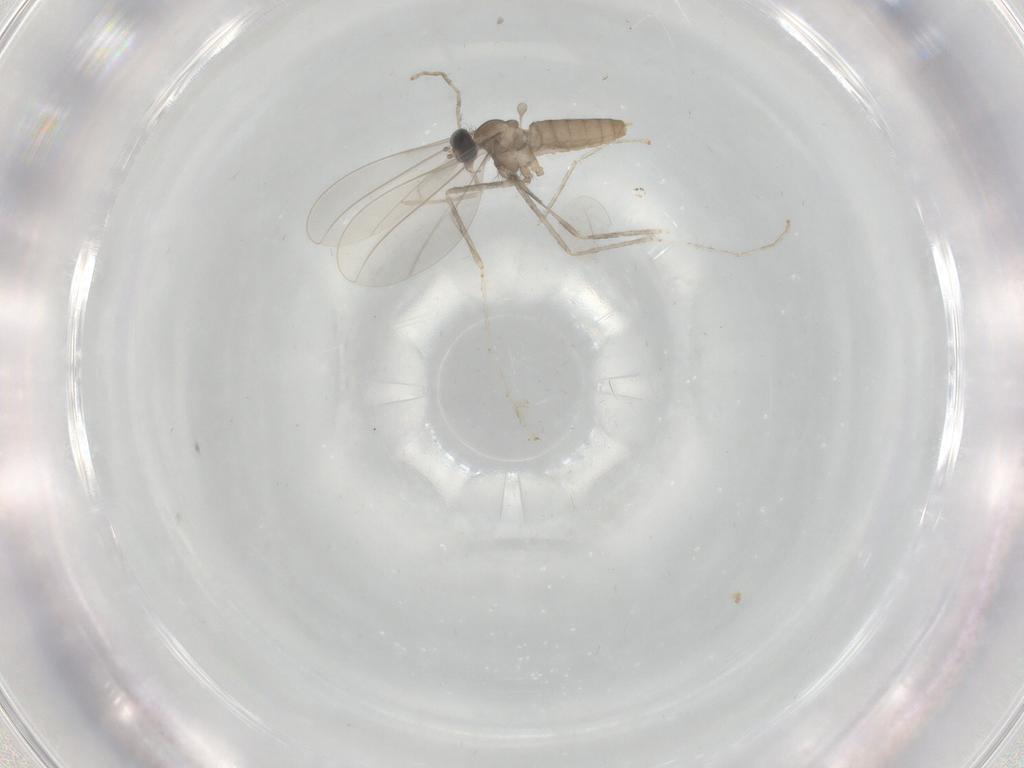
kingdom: Animalia
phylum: Arthropoda
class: Insecta
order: Diptera
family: Cecidomyiidae
